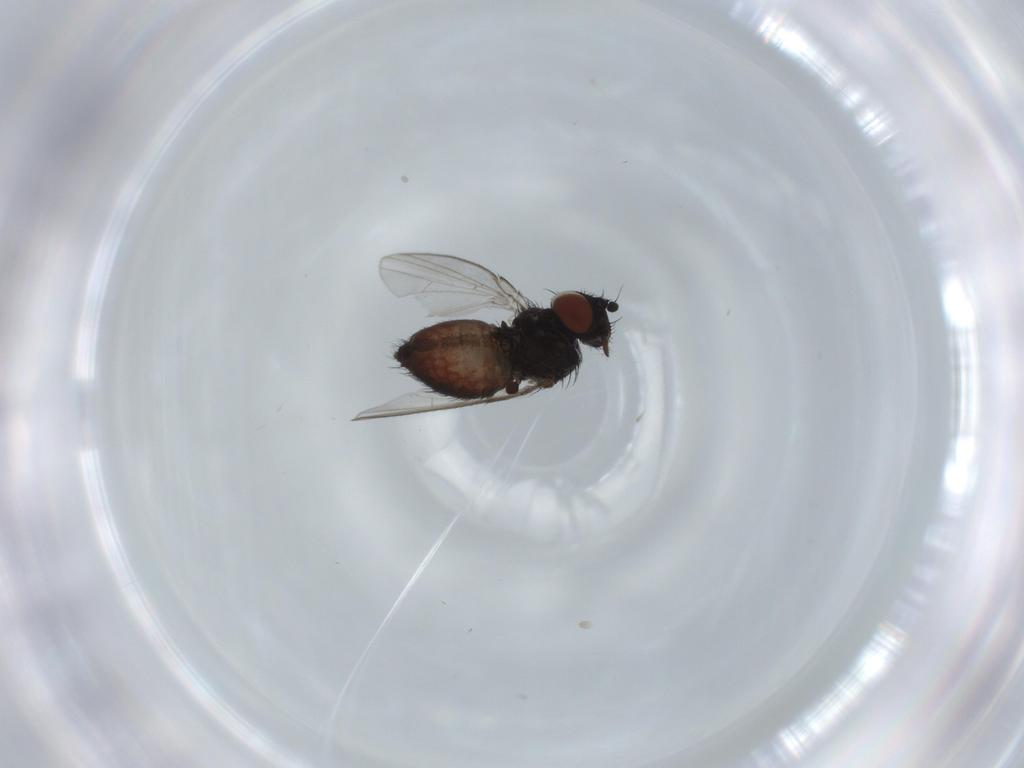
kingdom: Animalia
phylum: Arthropoda
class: Insecta
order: Diptera
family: Milichiidae
